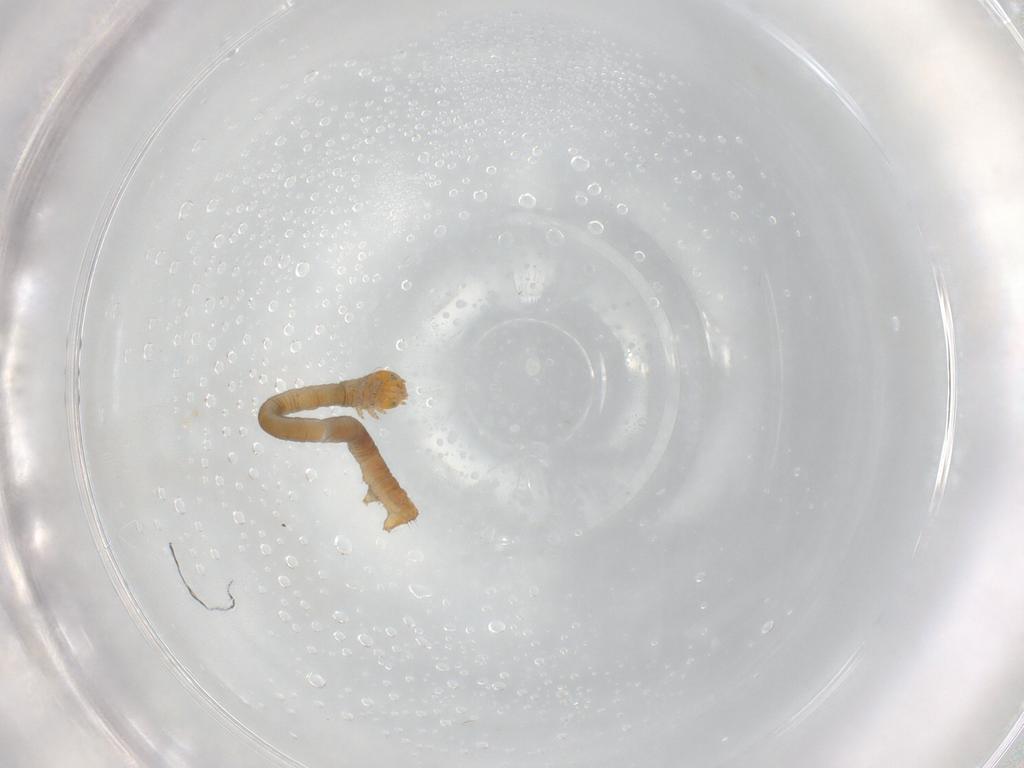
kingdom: Animalia
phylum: Arthropoda
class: Insecta
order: Lepidoptera
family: Geometridae
